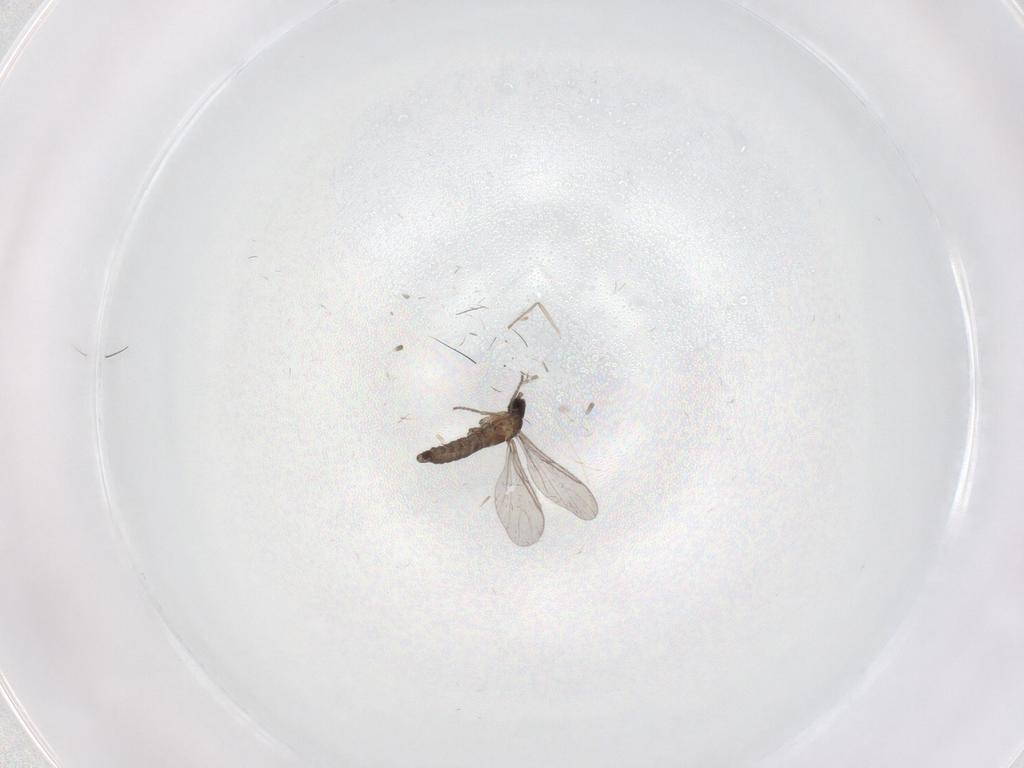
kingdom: Animalia
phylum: Arthropoda
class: Insecta
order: Diptera
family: Sciaridae
